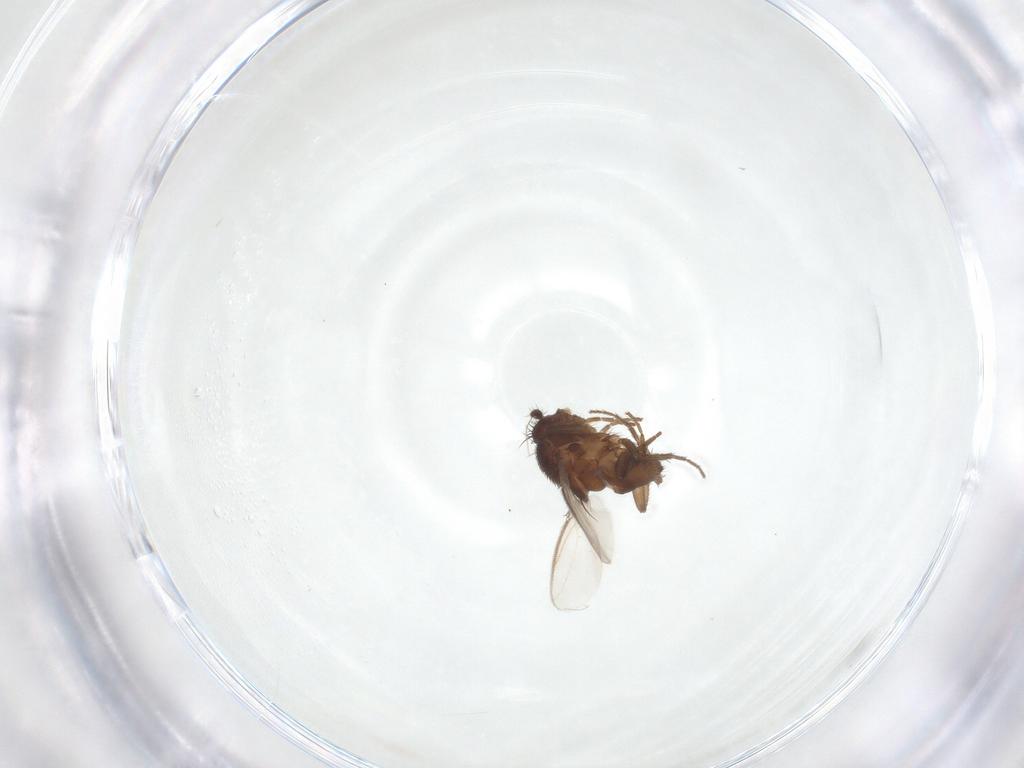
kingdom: Animalia
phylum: Arthropoda
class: Insecta
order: Diptera
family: Sphaeroceridae
